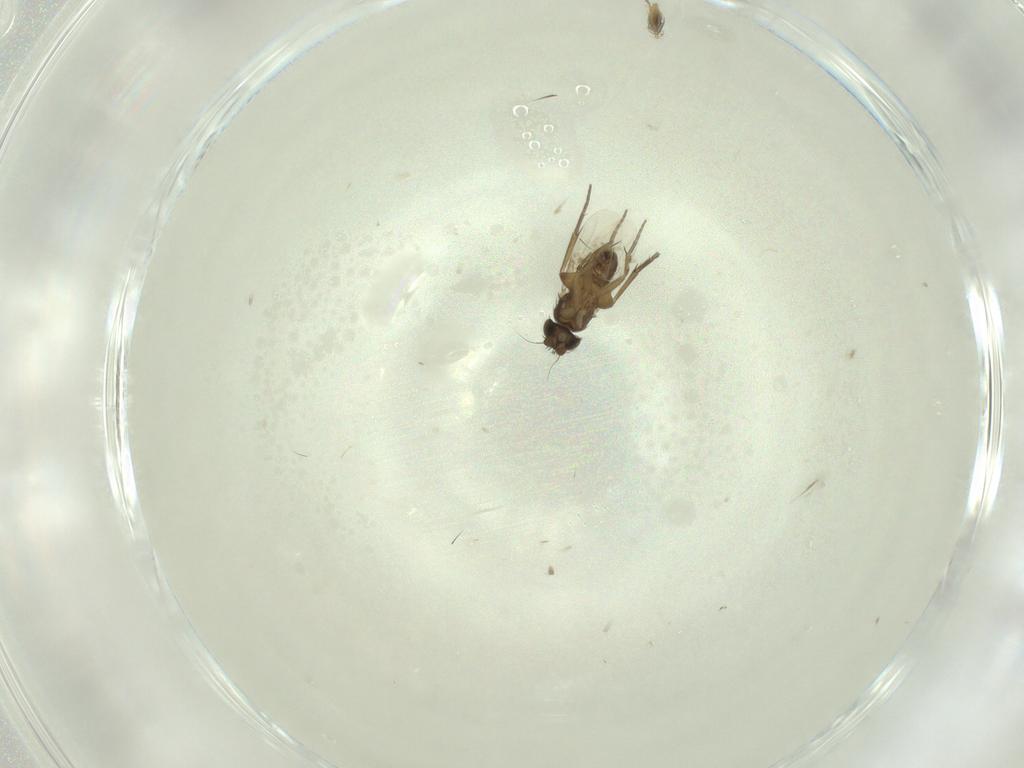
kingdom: Animalia
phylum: Arthropoda
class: Insecta
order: Diptera
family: Phoridae
